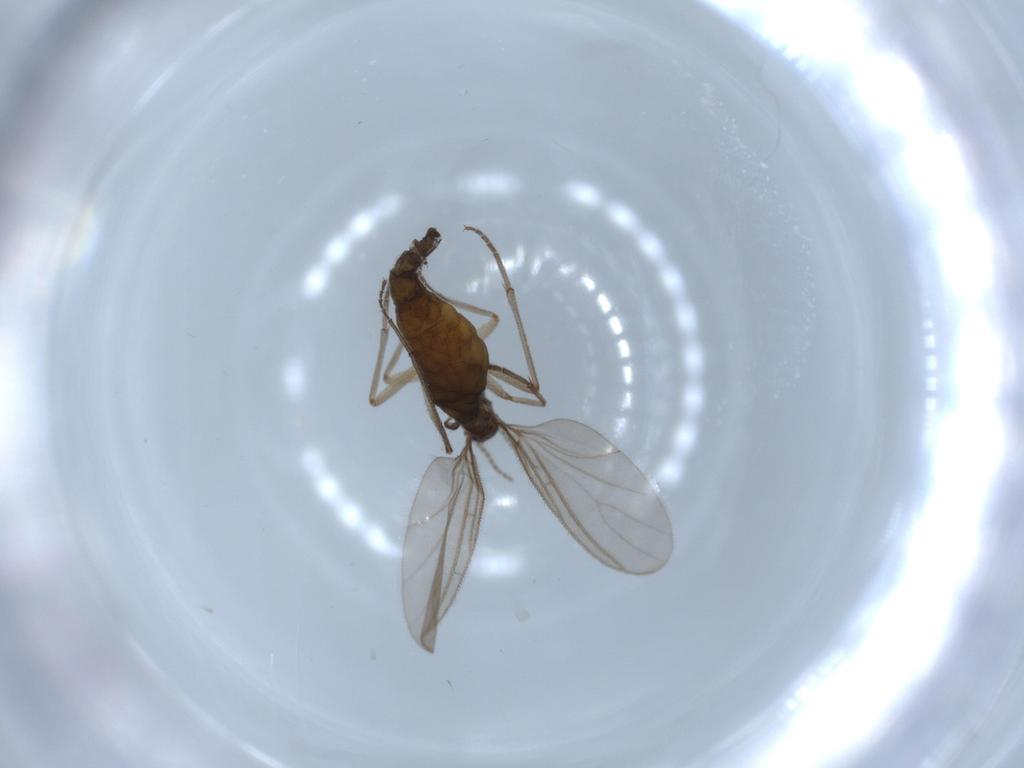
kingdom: Animalia
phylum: Arthropoda
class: Insecta
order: Diptera
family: Sciaridae
